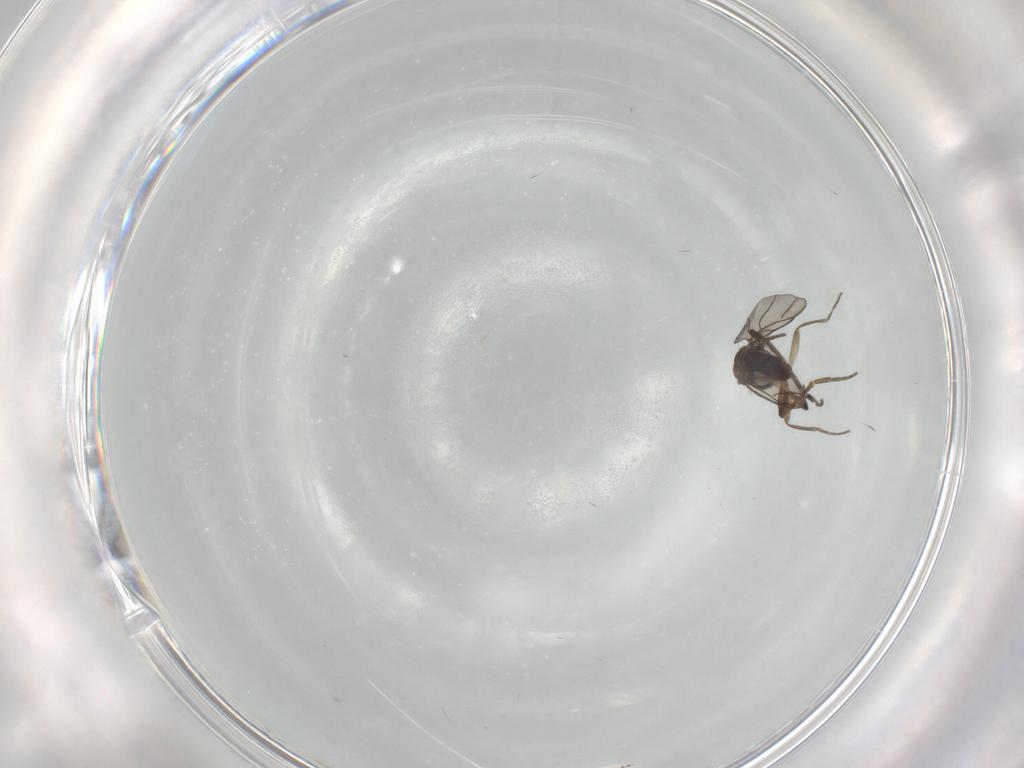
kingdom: Animalia
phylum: Arthropoda
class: Insecta
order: Diptera
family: Phoridae
